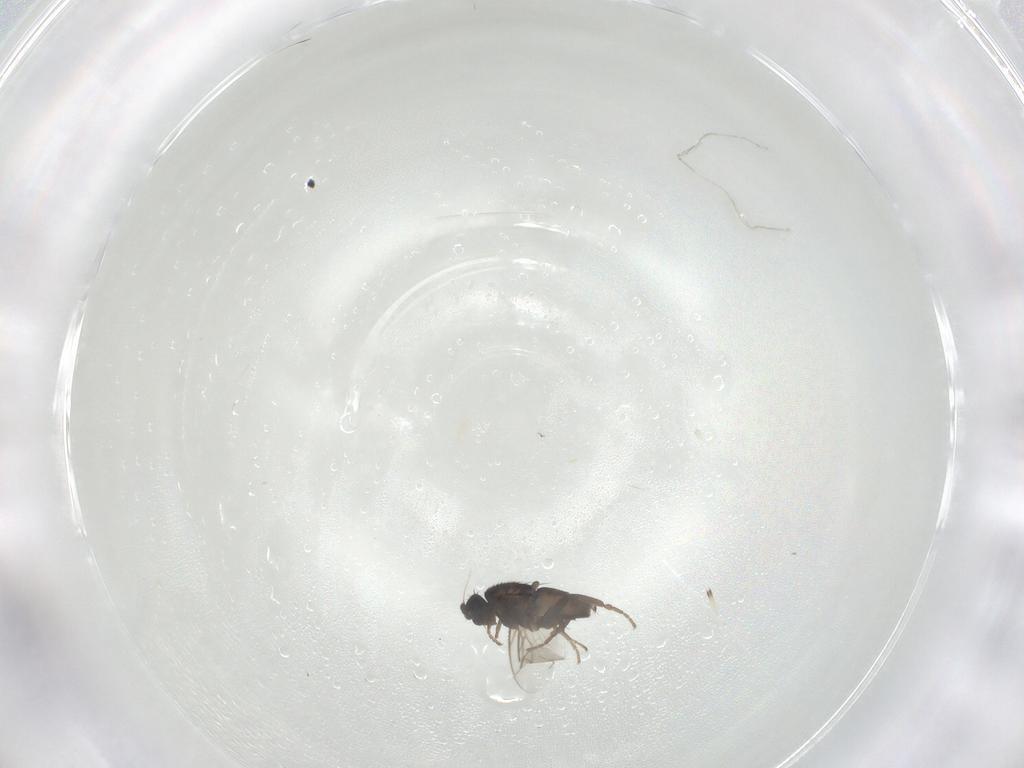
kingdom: Animalia
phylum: Arthropoda
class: Insecta
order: Diptera
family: Sphaeroceridae
